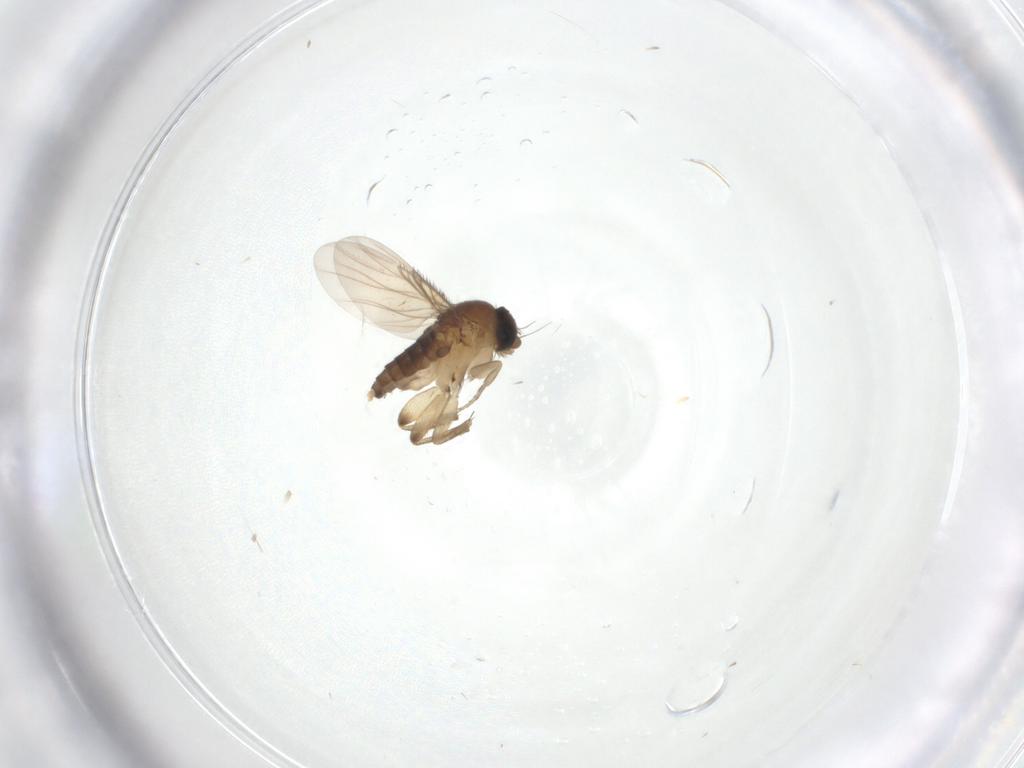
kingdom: Animalia
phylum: Arthropoda
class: Insecta
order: Diptera
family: Phoridae
